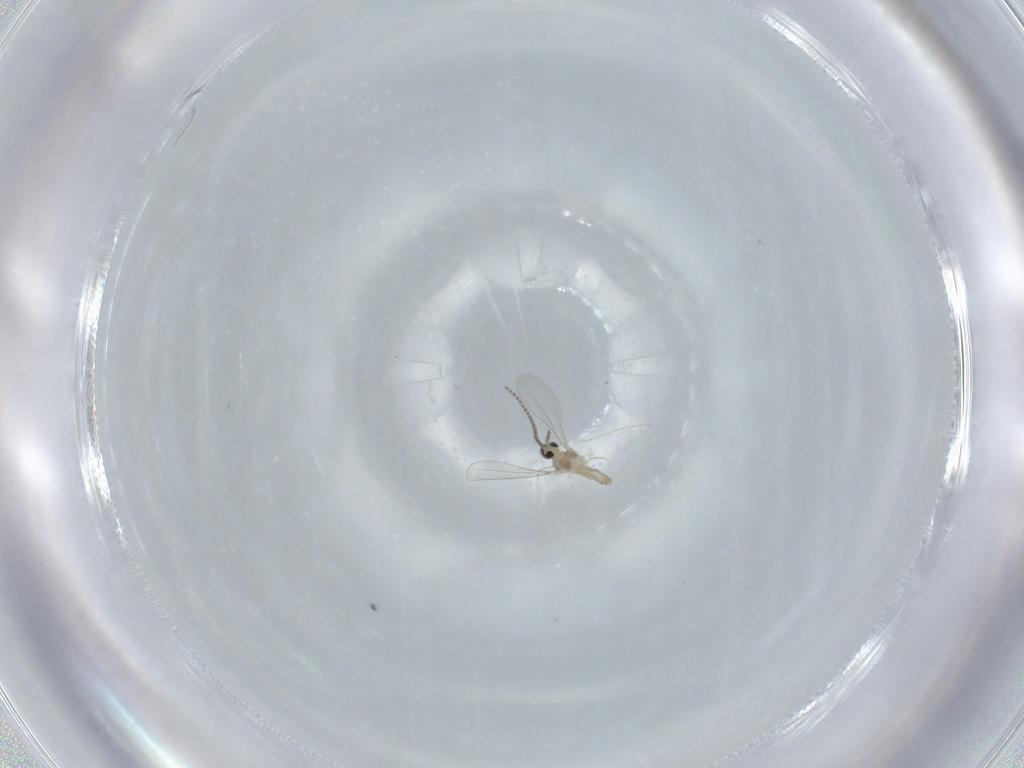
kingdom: Animalia
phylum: Arthropoda
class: Insecta
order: Diptera
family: Cecidomyiidae
